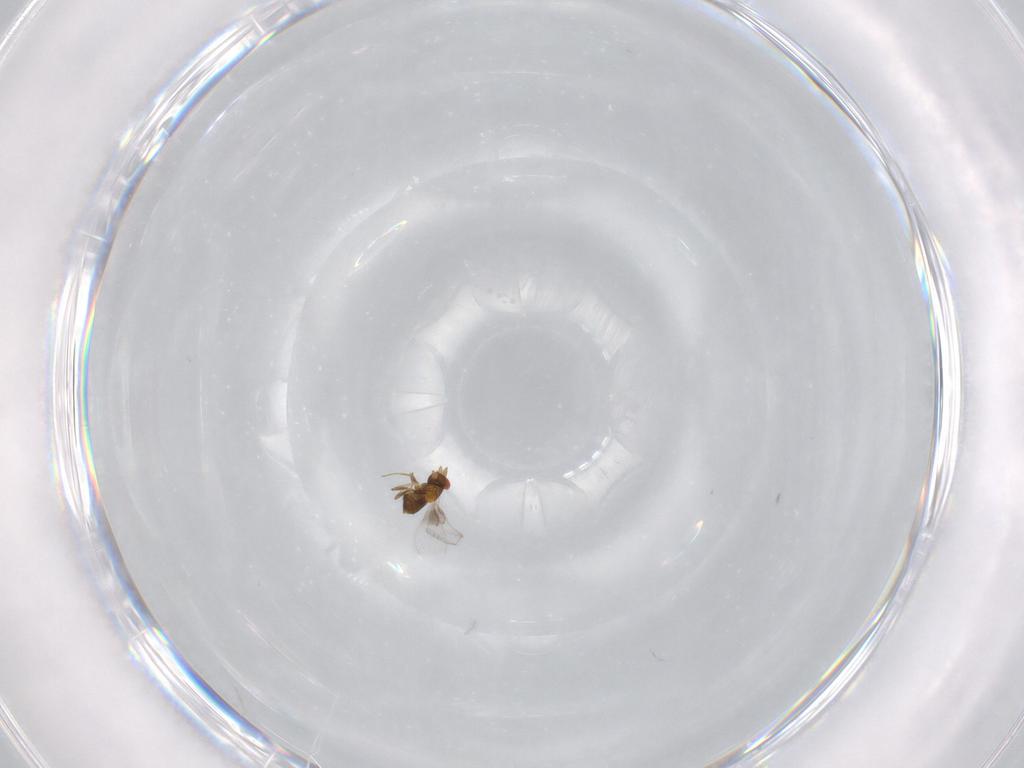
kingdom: Animalia
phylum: Arthropoda
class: Insecta
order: Hymenoptera
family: Trichogrammatidae
